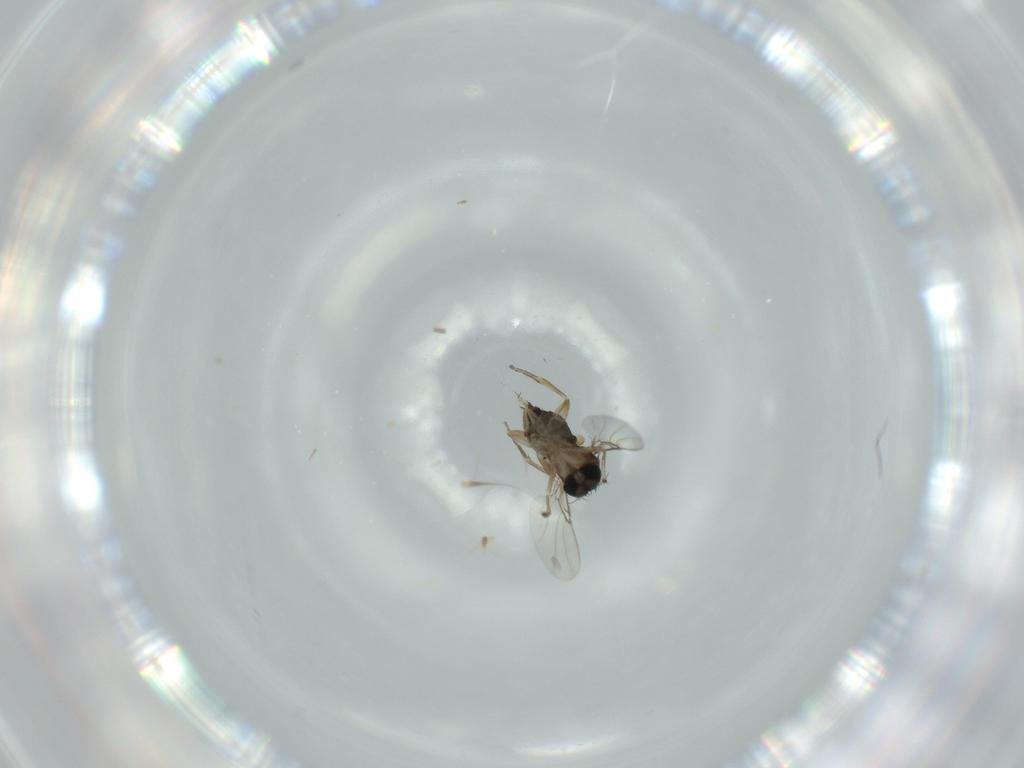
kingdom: Animalia
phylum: Arthropoda
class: Insecta
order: Diptera
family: Phoridae
